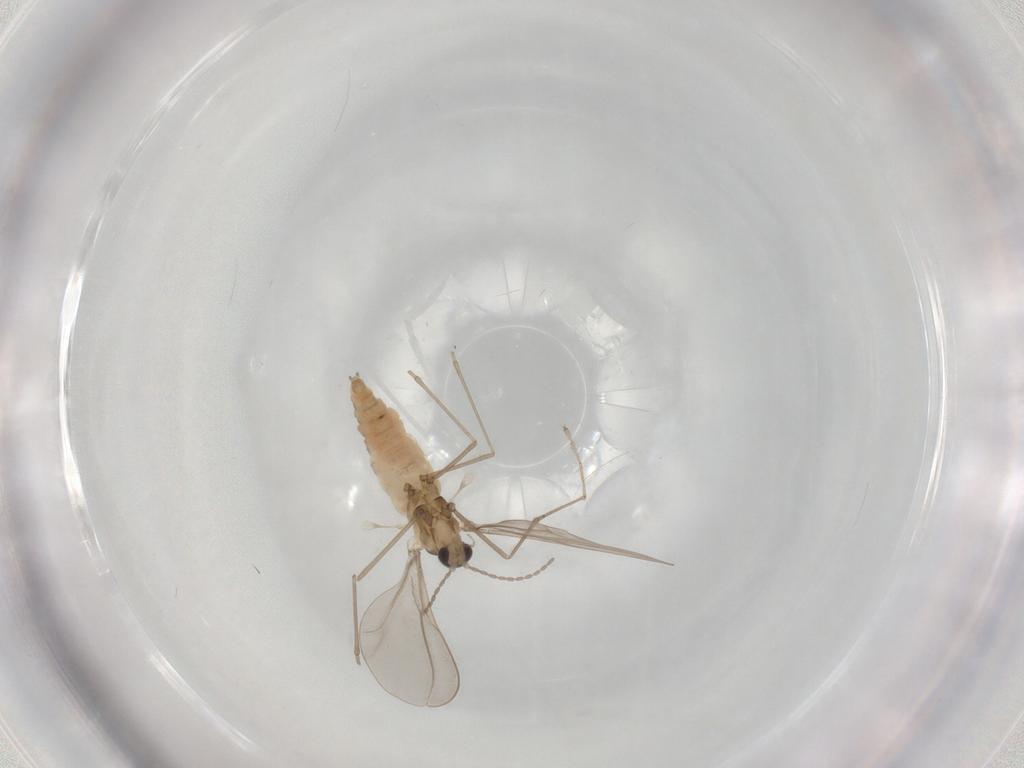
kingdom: Animalia
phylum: Arthropoda
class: Insecta
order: Diptera
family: Cecidomyiidae
